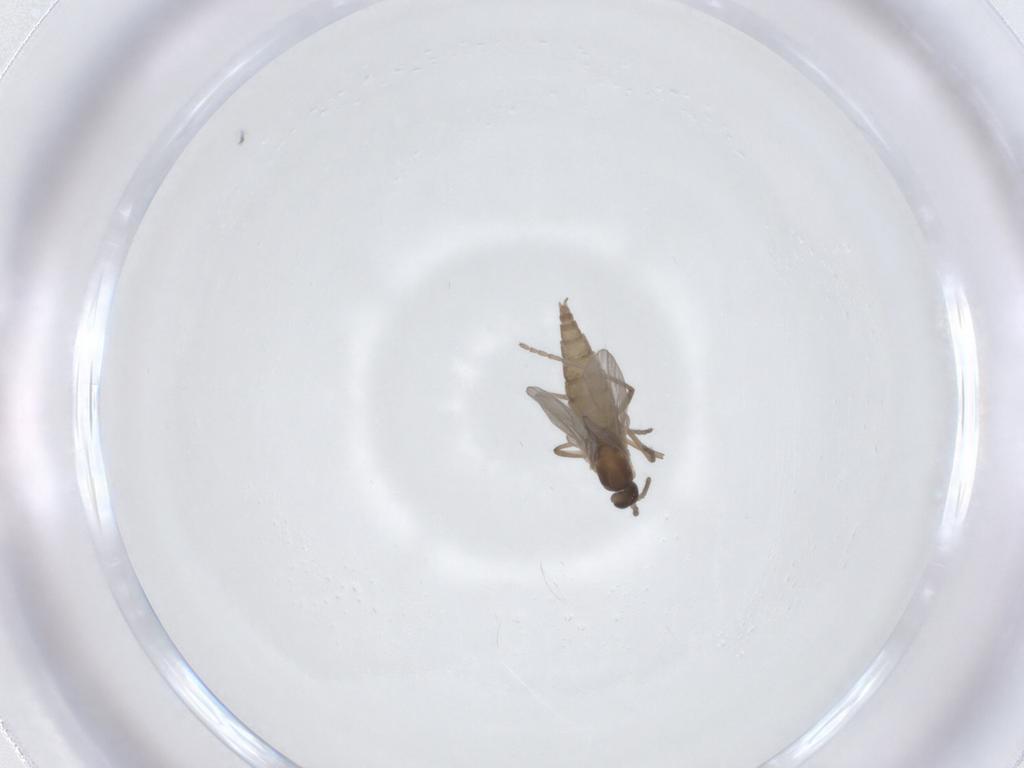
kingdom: Animalia
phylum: Arthropoda
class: Insecta
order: Diptera
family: Cecidomyiidae
